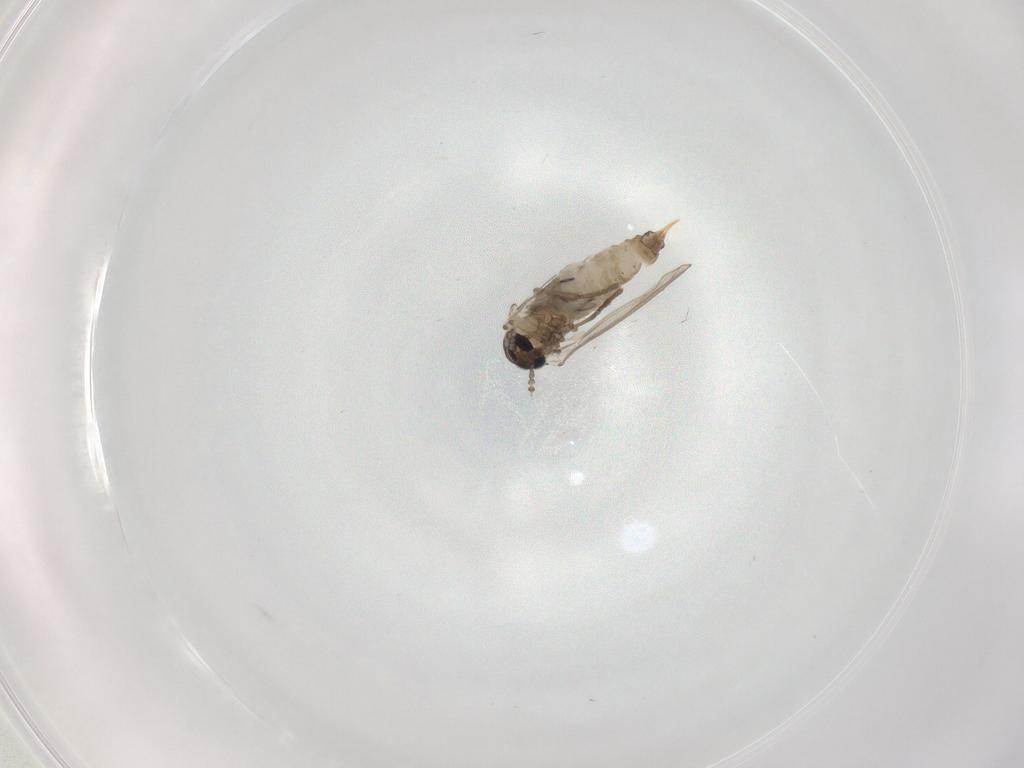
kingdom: Animalia
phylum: Arthropoda
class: Insecta
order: Diptera
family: Psychodidae
